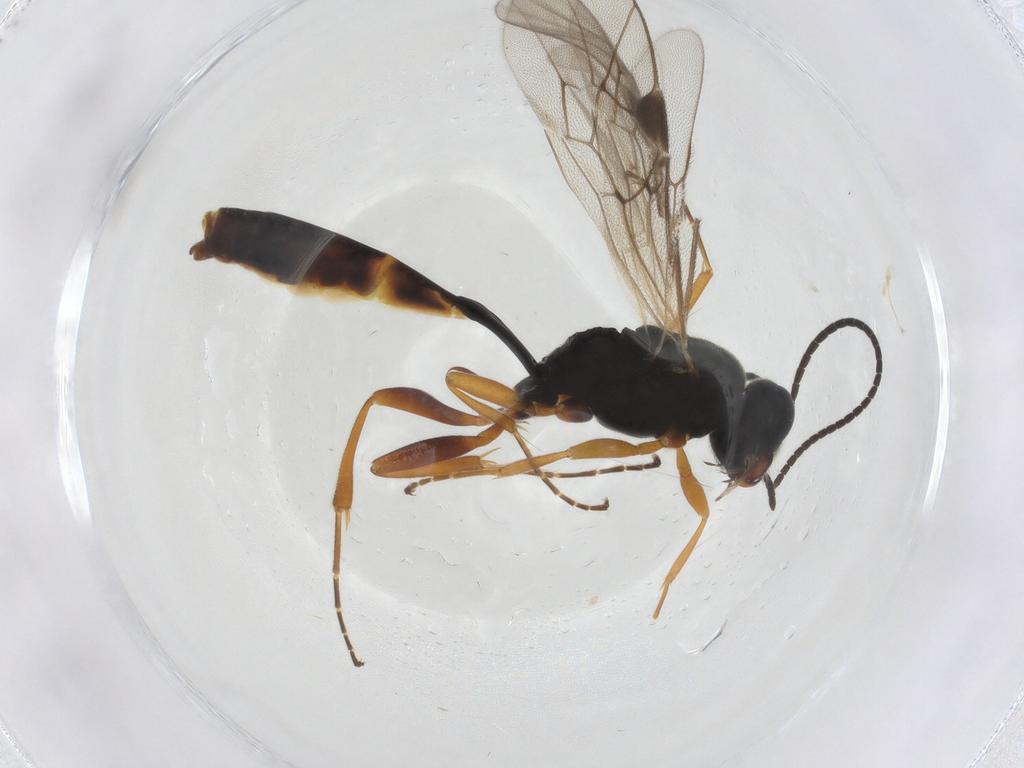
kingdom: Animalia
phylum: Arthropoda
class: Insecta
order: Hymenoptera
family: Ichneumonidae
